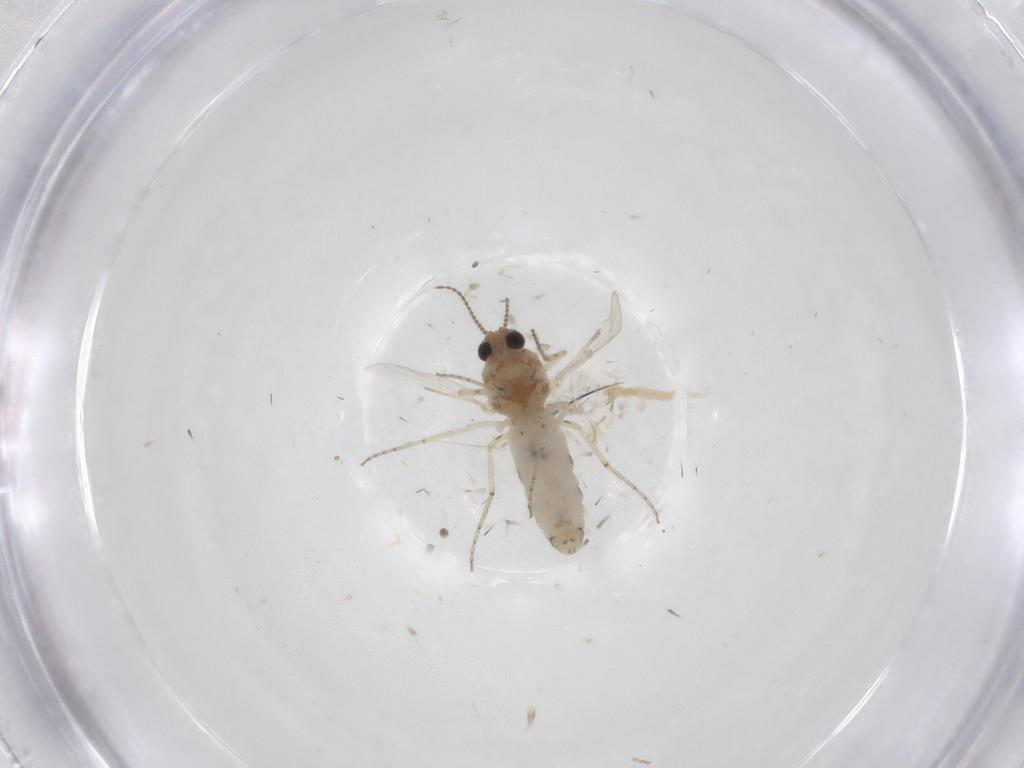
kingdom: Animalia
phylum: Arthropoda
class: Insecta
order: Diptera
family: Ceratopogonidae
